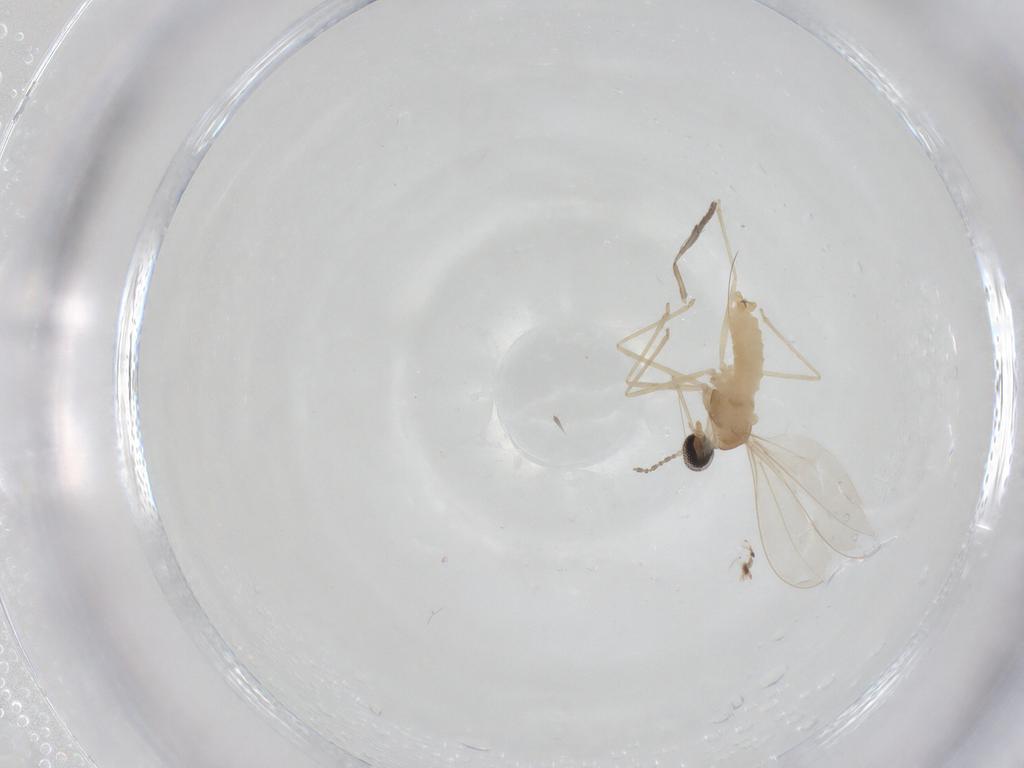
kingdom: Animalia
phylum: Arthropoda
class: Insecta
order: Diptera
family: Cecidomyiidae
